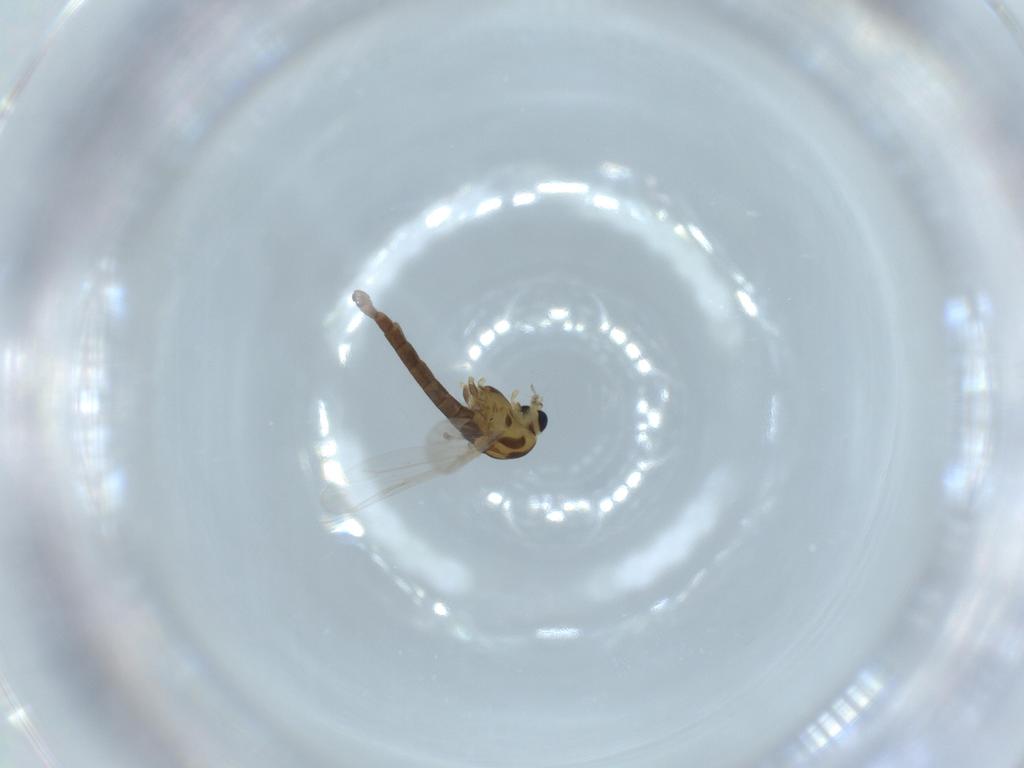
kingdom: Animalia
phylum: Arthropoda
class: Insecta
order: Diptera
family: Chironomidae
